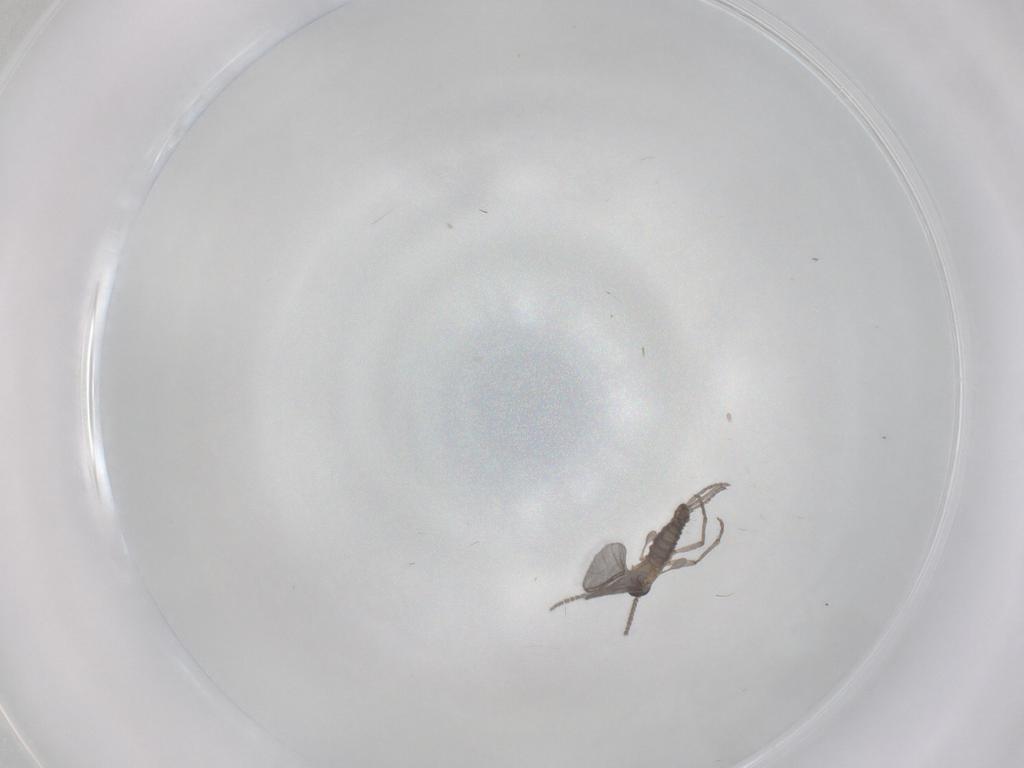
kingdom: Animalia
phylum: Arthropoda
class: Insecta
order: Diptera
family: Sciaridae
